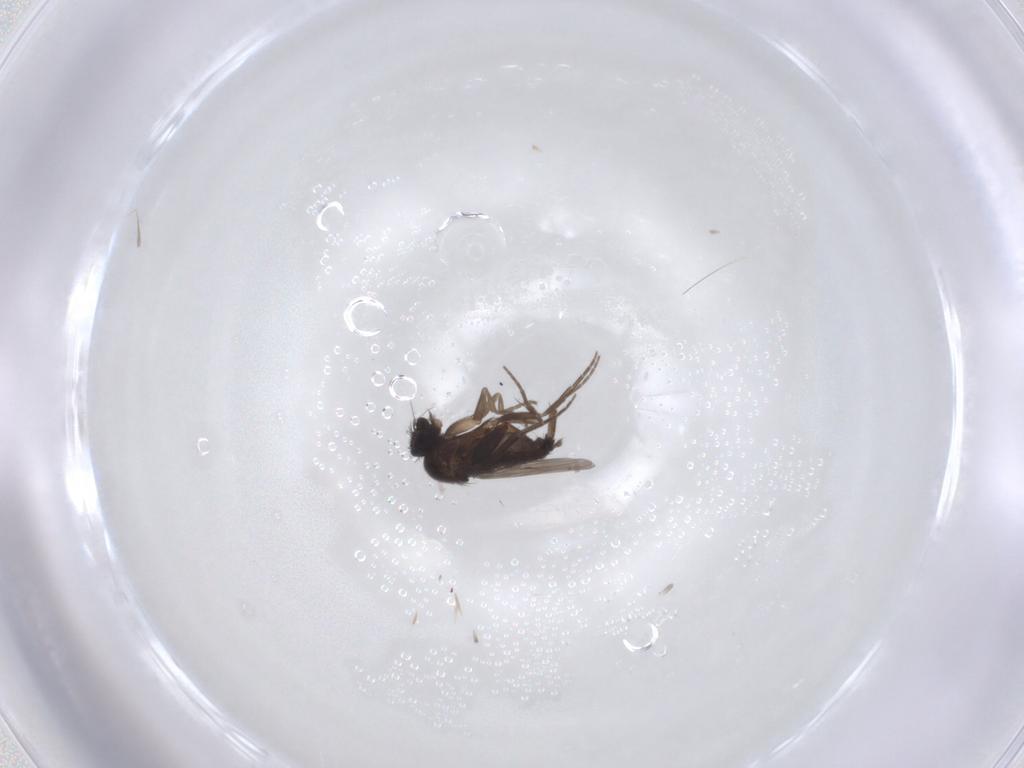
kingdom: Animalia
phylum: Arthropoda
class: Insecta
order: Diptera
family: Phoridae
